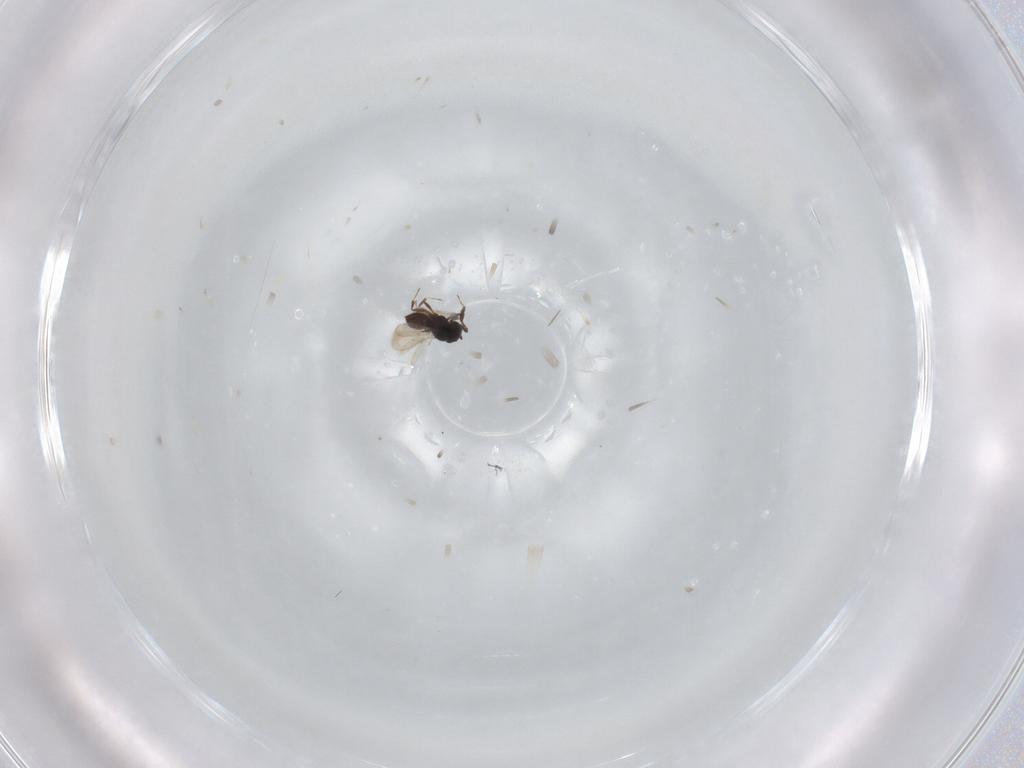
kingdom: Animalia
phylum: Arthropoda
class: Insecta
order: Hymenoptera
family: Scelionidae
